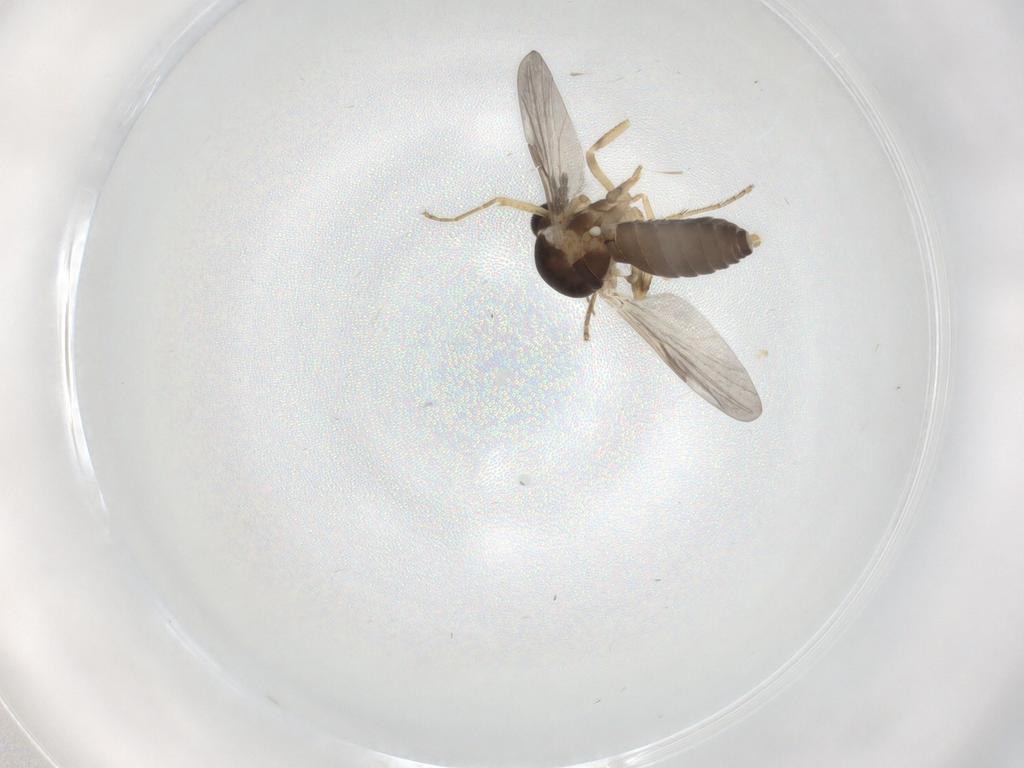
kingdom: Animalia
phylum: Arthropoda
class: Insecta
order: Diptera
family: Ceratopogonidae
